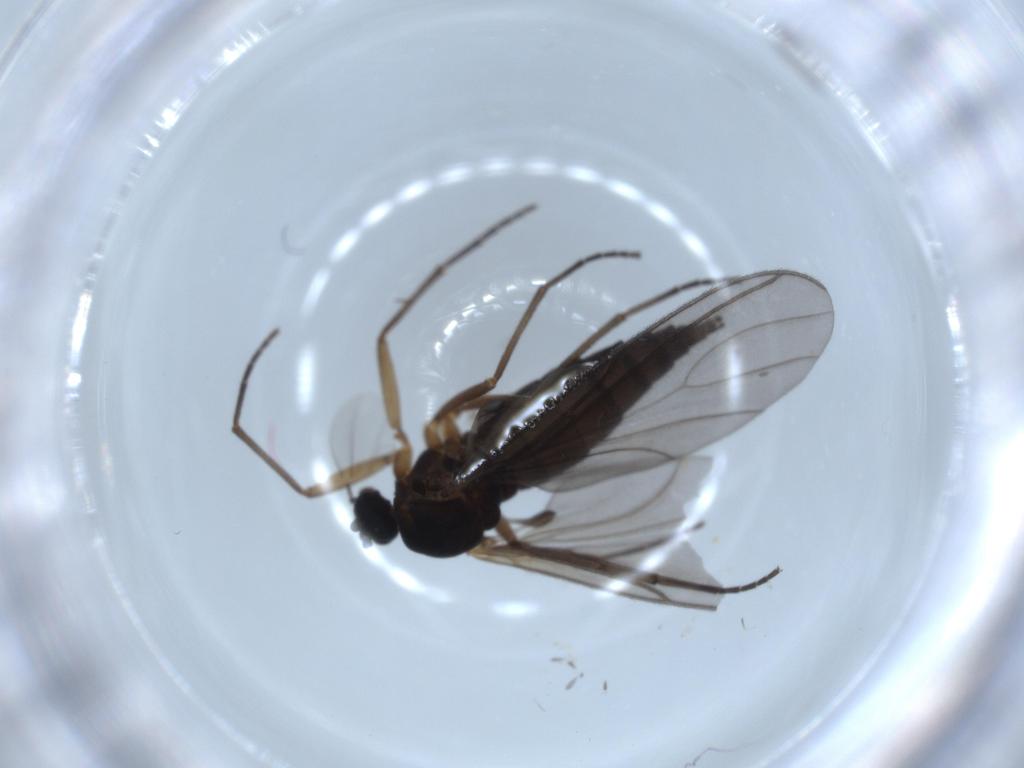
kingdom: Animalia
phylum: Arthropoda
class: Insecta
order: Diptera
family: Sciaridae
